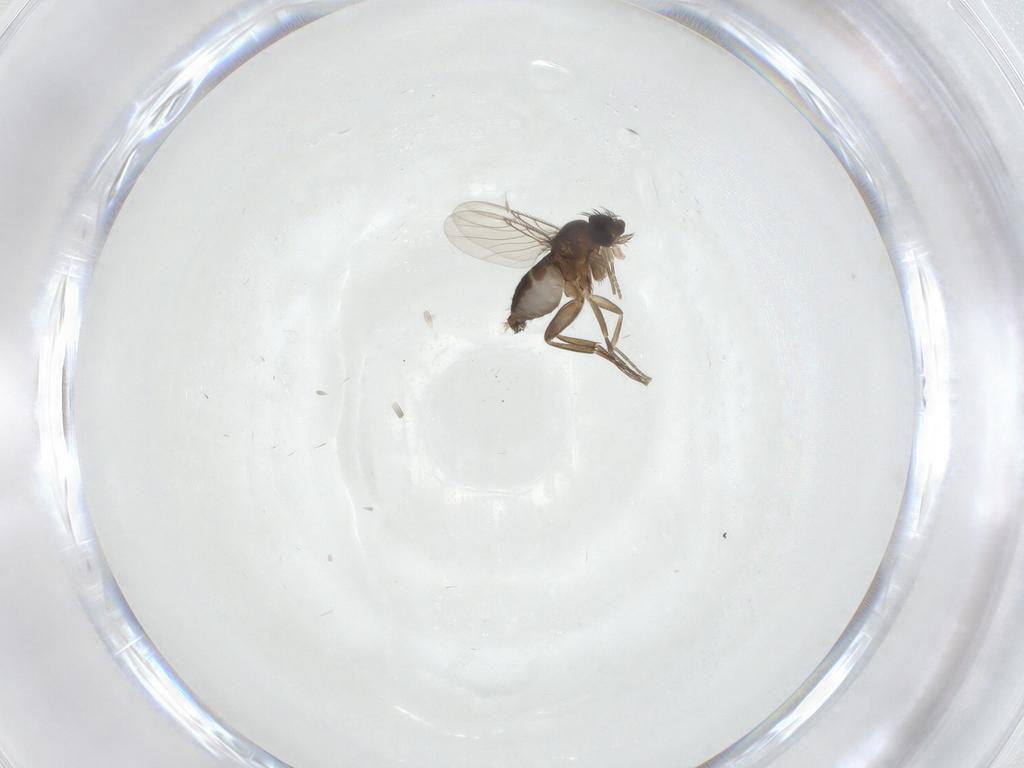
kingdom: Animalia
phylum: Arthropoda
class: Insecta
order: Diptera
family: Phoridae
